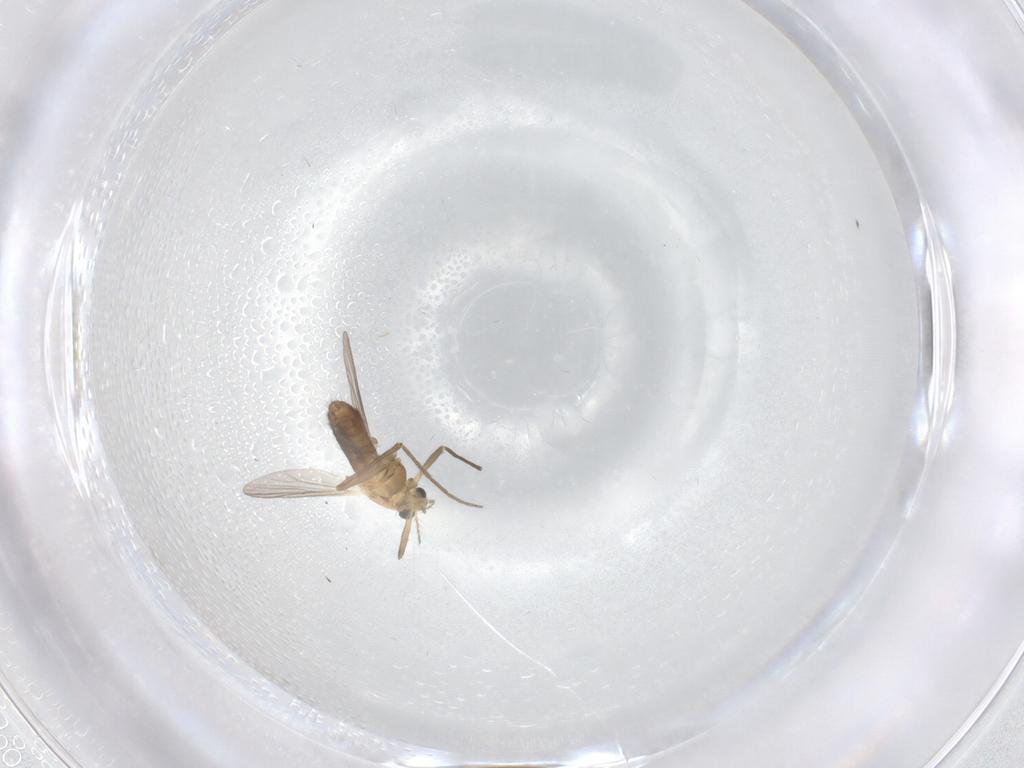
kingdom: Animalia
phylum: Arthropoda
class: Insecta
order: Diptera
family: Chironomidae
